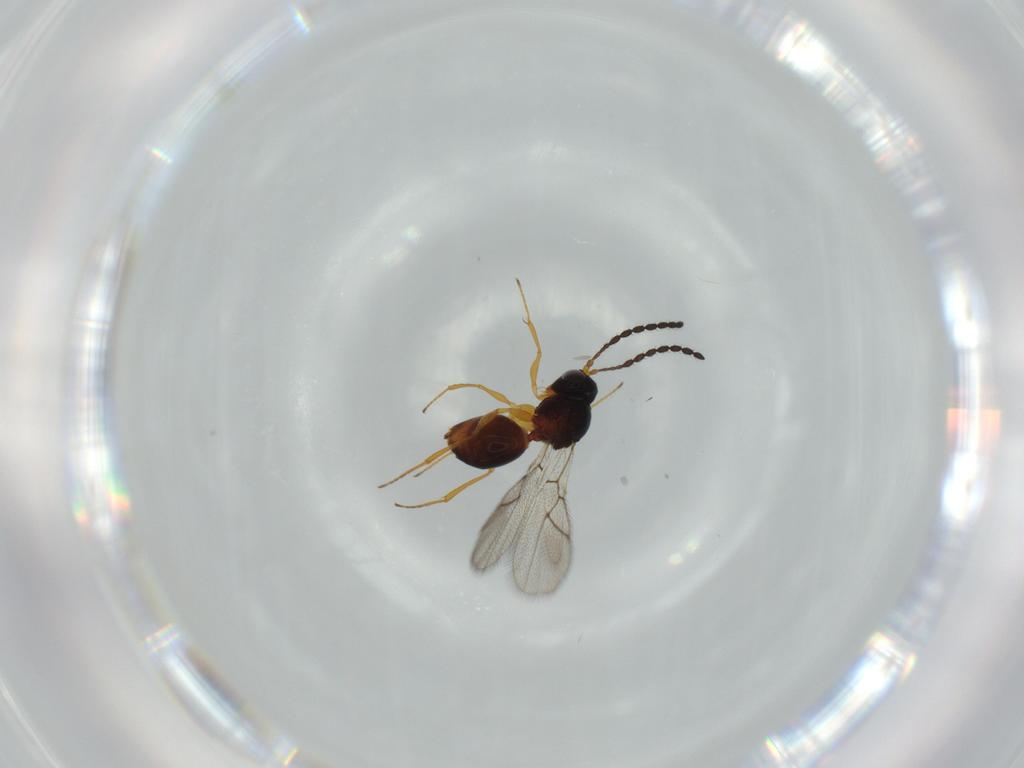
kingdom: Animalia
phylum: Arthropoda
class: Insecta
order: Hymenoptera
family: Figitidae
